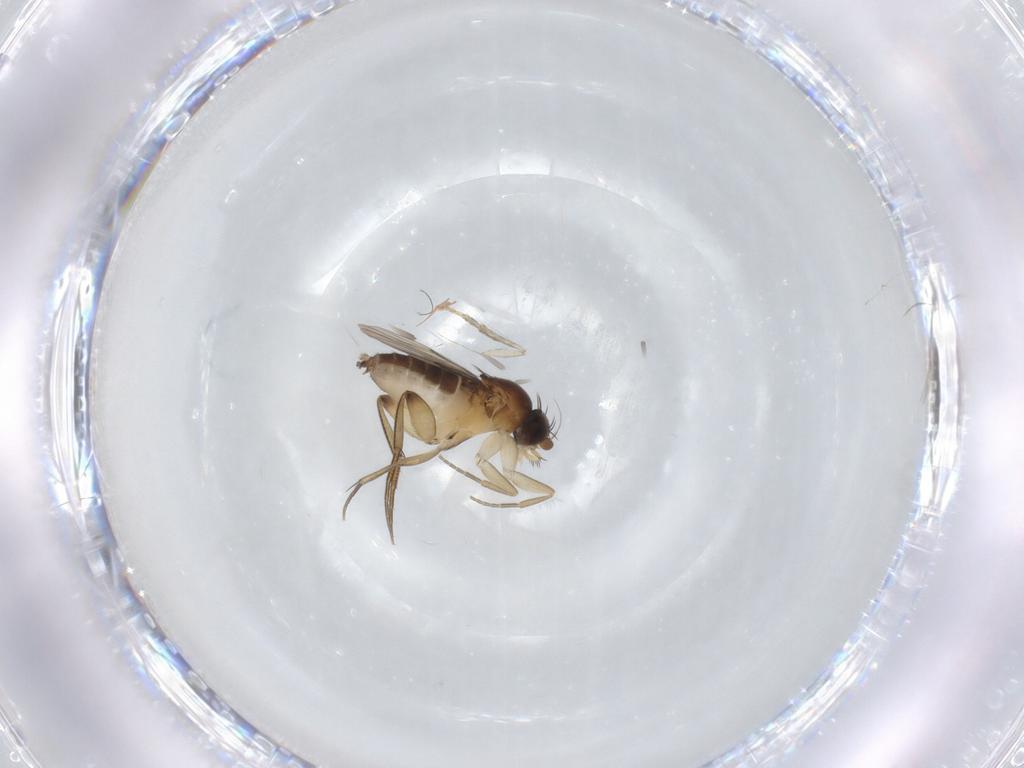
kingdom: Animalia
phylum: Arthropoda
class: Insecta
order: Diptera
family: Phoridae
